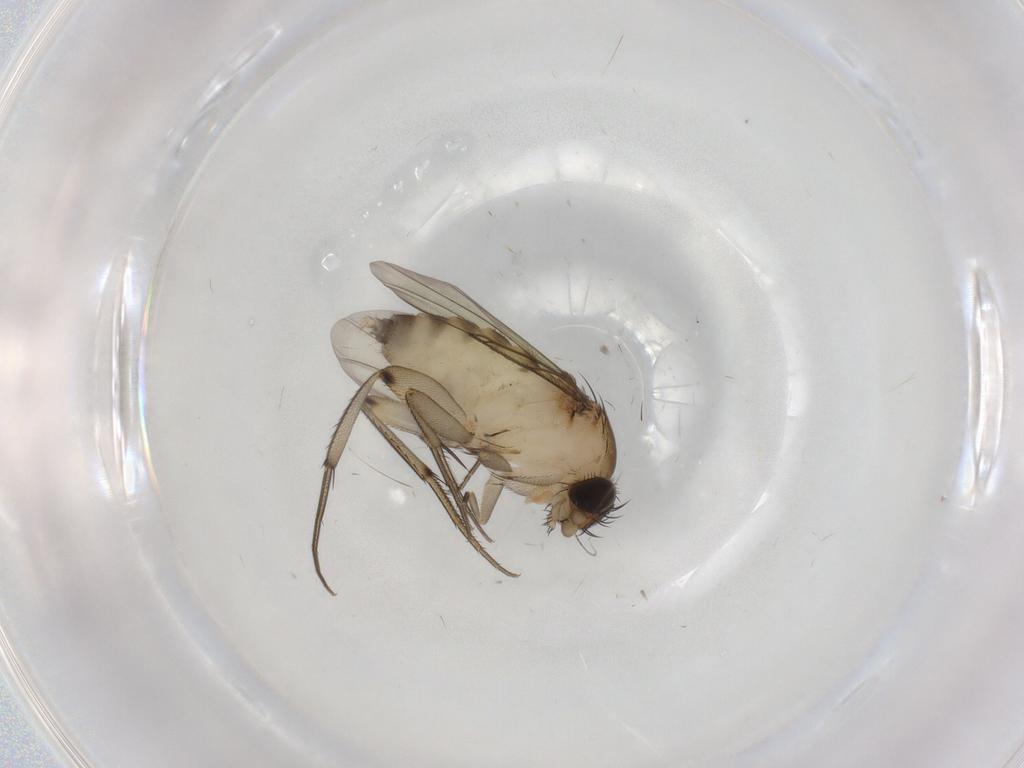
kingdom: Animalia
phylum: Arthropoda
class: Insecta
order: Diptera
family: Phoridae
